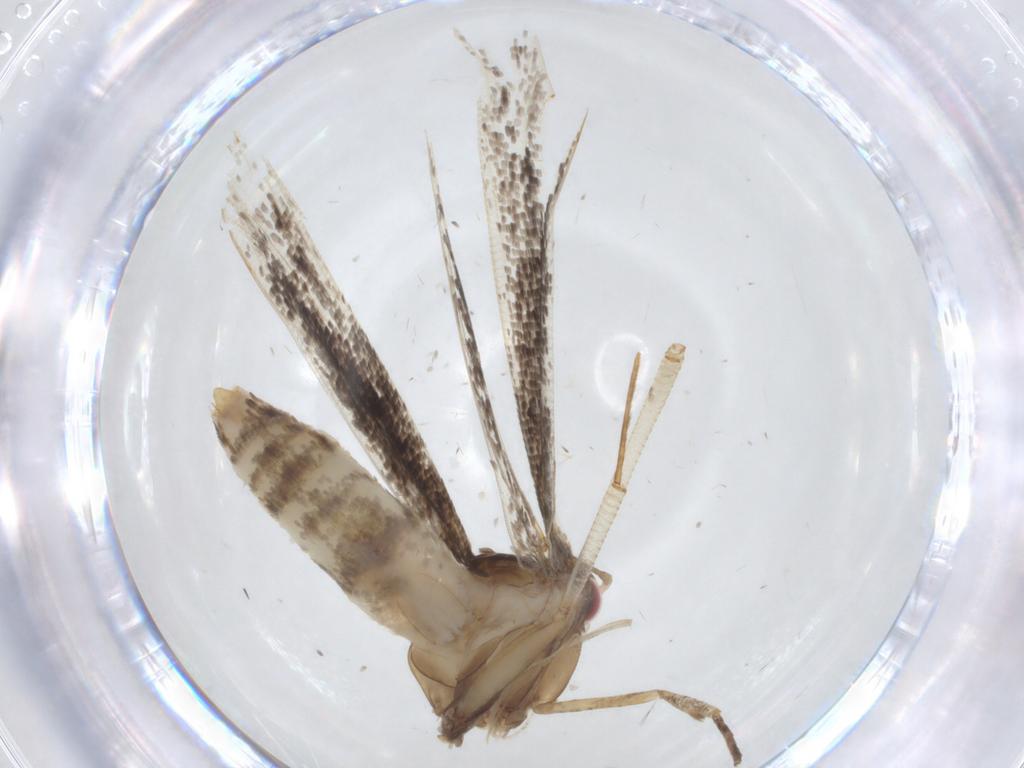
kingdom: Animalia
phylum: Arthropoda
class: Insecta
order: Lepidoptera
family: Cosmopterigidae
